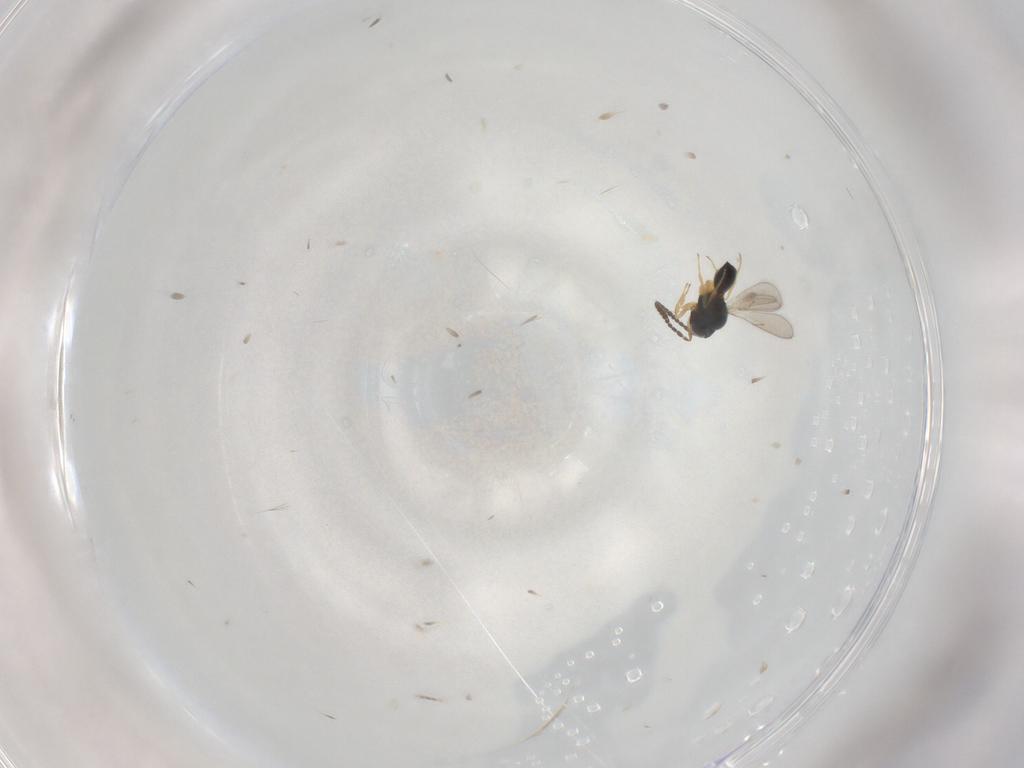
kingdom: Animalia
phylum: Arthropoda
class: Insecta
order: Hymenoptera
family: Scelionidae
